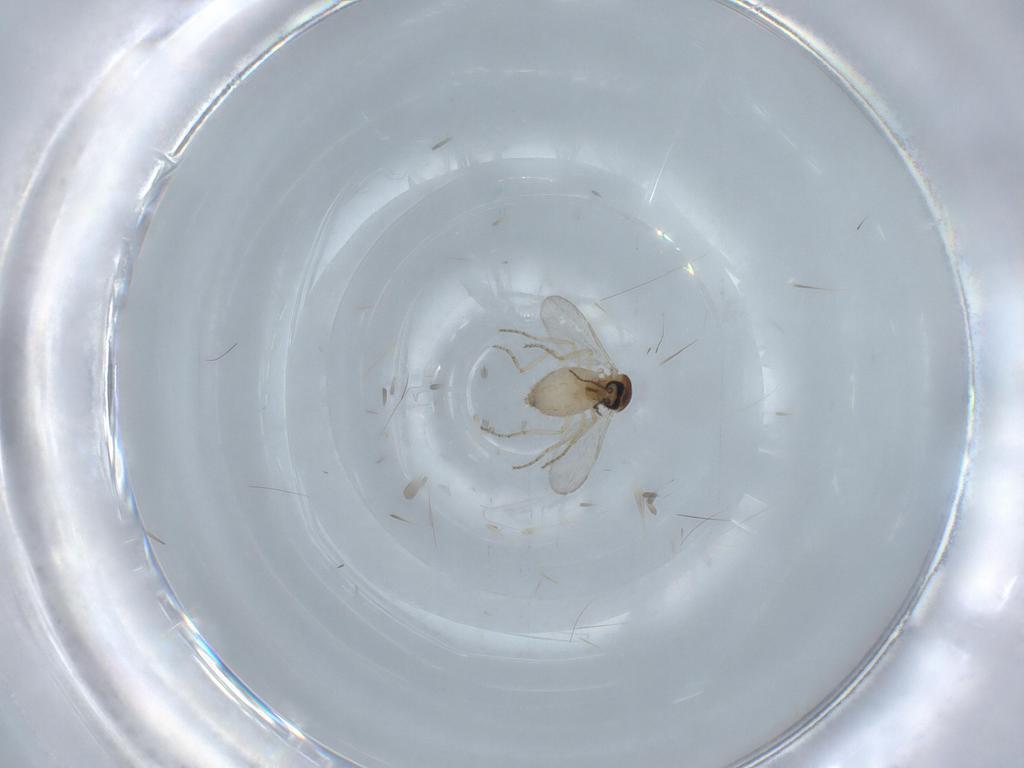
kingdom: Animalia
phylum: Arthropoda
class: Insecta
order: Diptera
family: Ceratopogonidae
